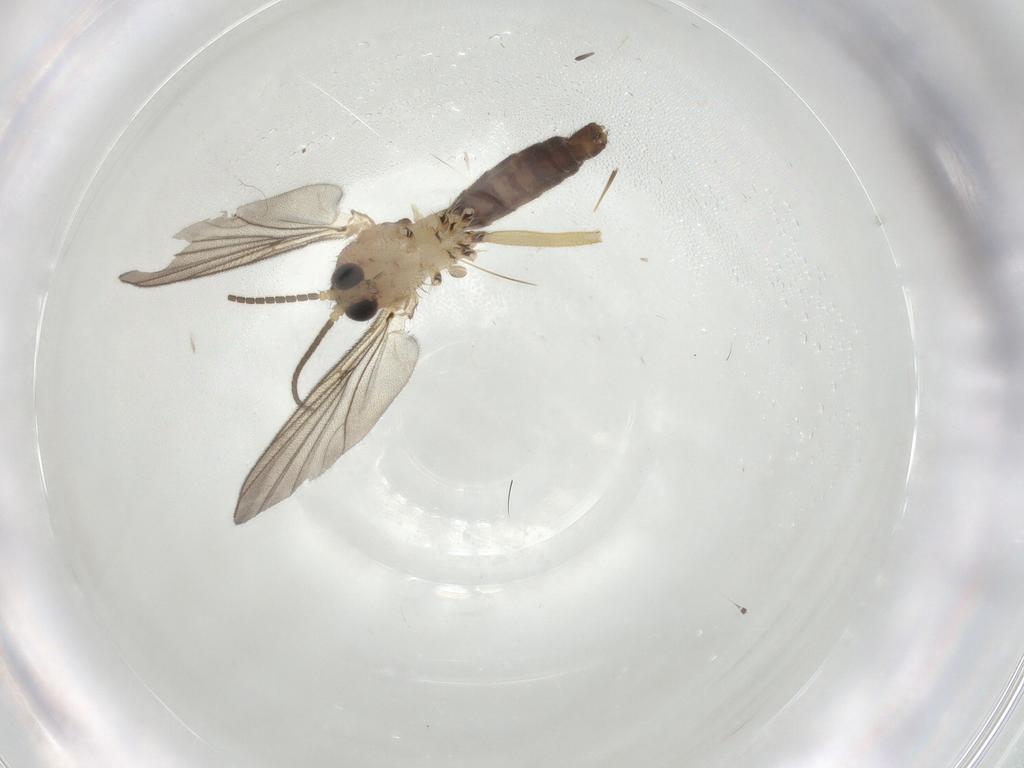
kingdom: Animalia
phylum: Arthropoda
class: Insecta
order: Diptera
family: Mycetophilidae
